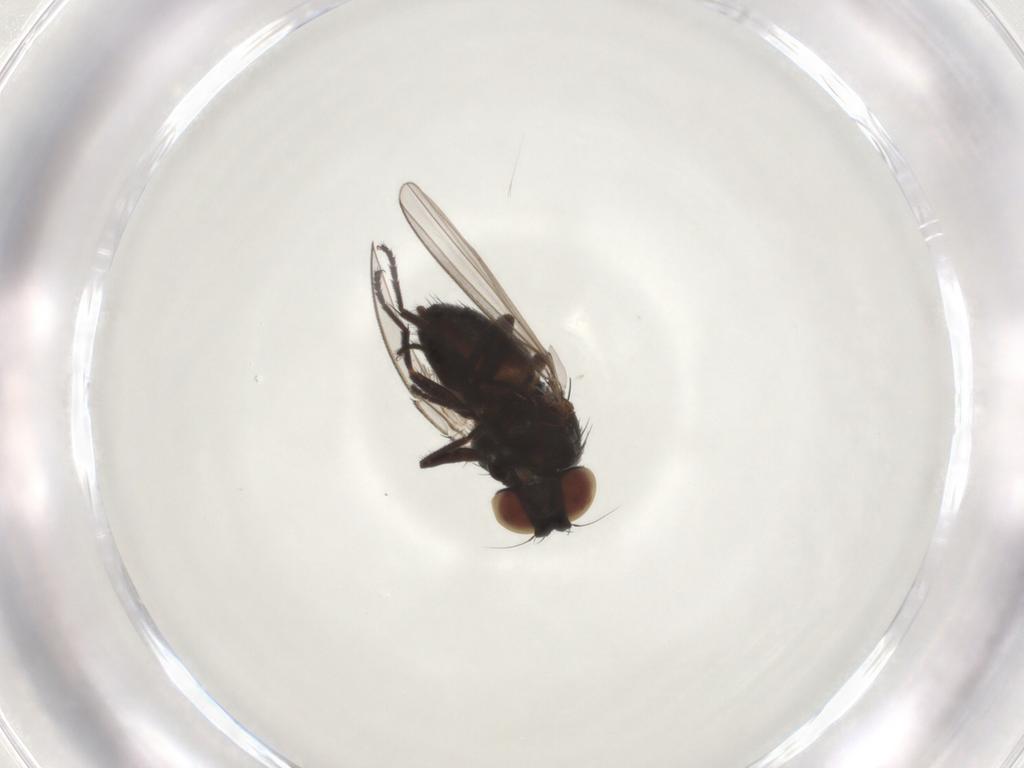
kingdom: Animalia
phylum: Arthropoda
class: Insecta
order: Diptera
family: Milichiidae
